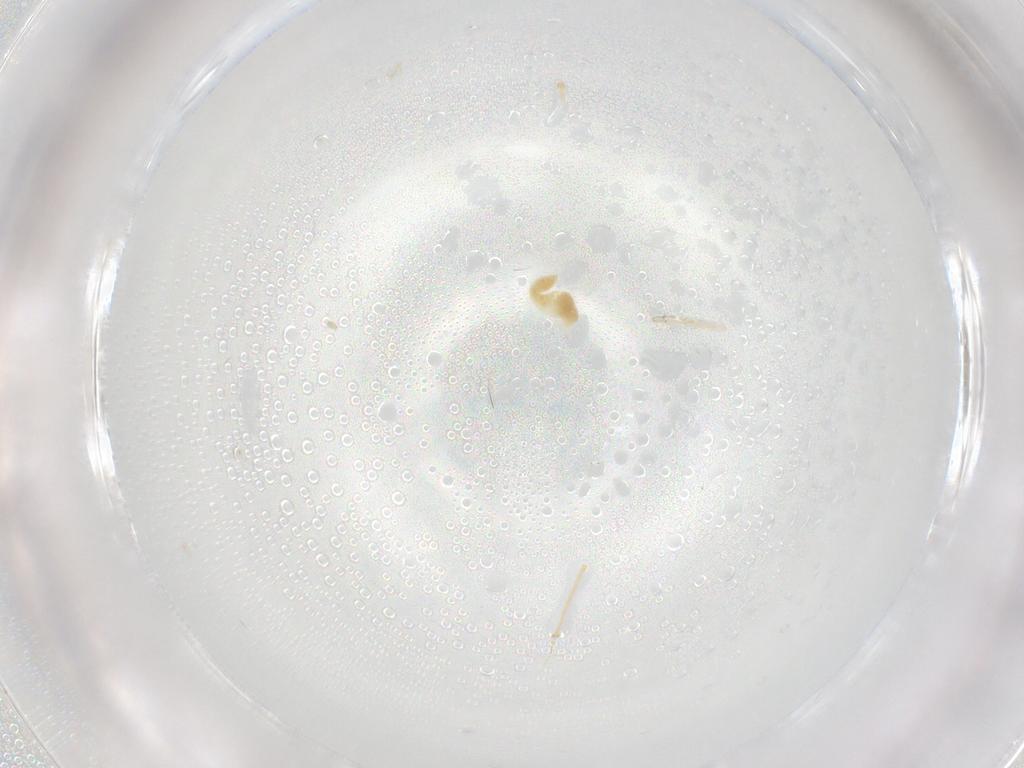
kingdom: Animalia
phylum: Arthropoda
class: Arachnida
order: Trombidiformes
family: Eupodidae
